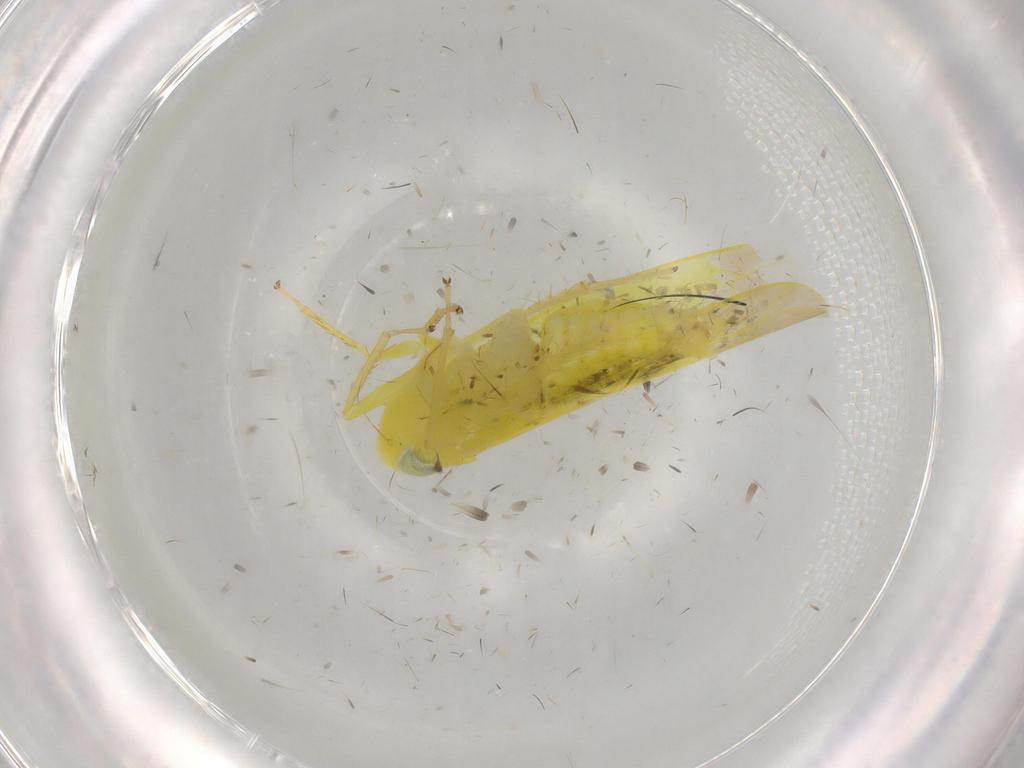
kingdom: Animalia
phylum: Arthropoda
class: Insecta
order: Hemiptera
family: Cicadellidae
